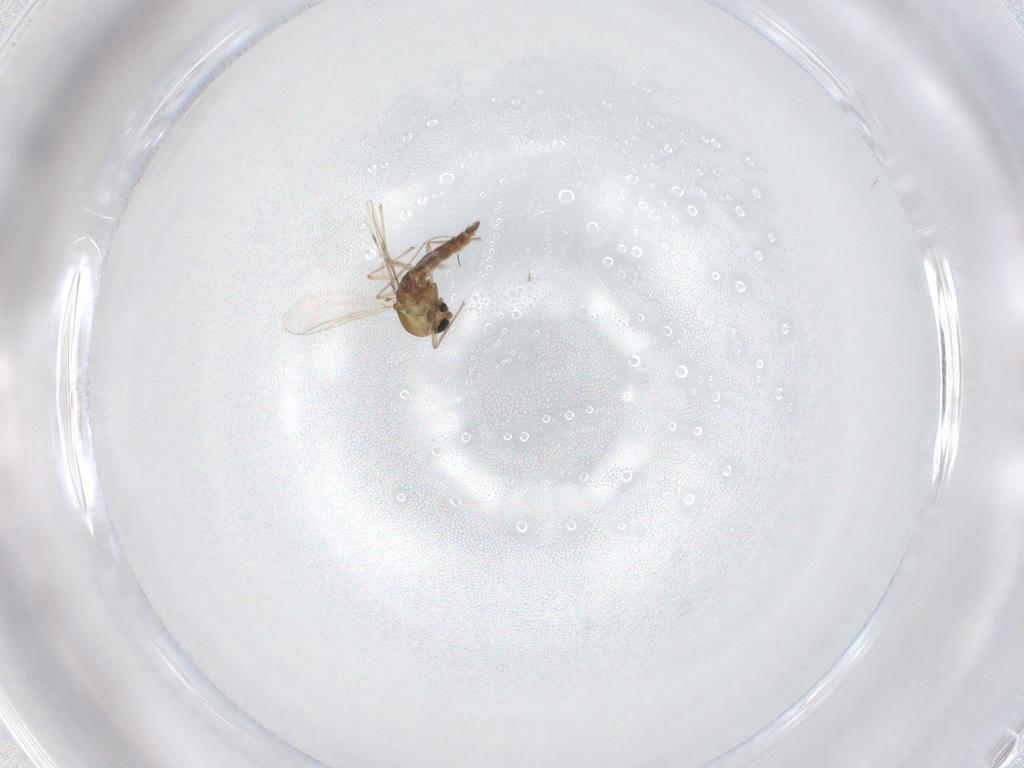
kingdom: Animalia
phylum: Arthropoda
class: Insecta
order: Diptera
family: Chironomidae
